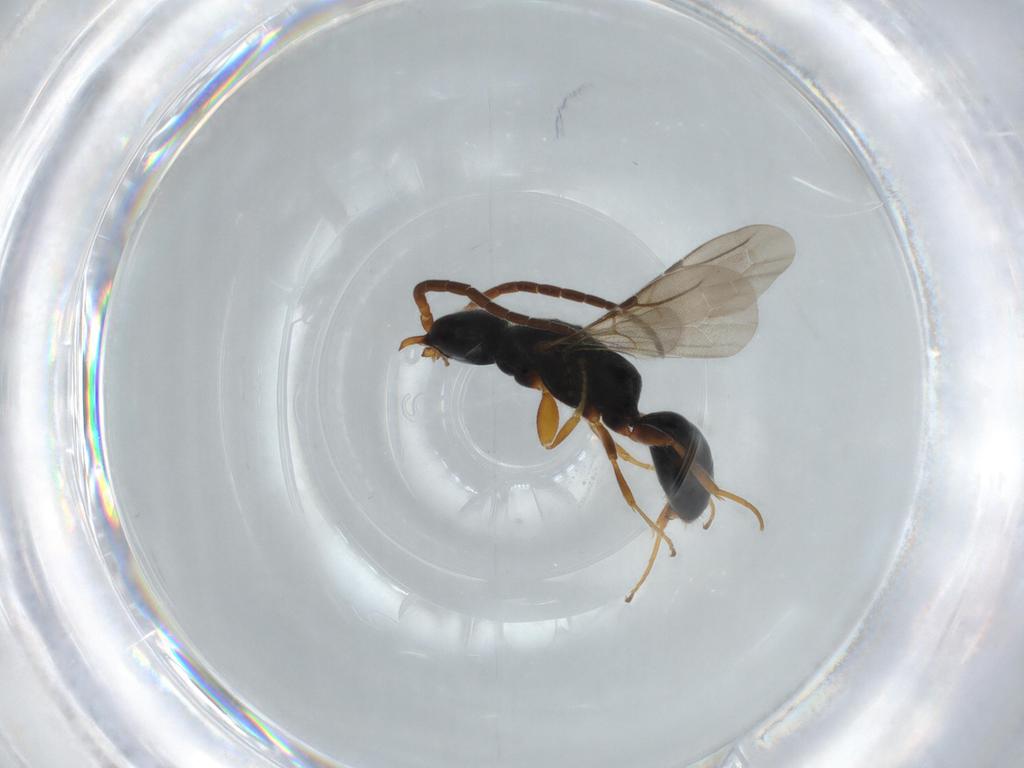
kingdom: Animalia
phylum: Arthropoda
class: Insecta
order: Hymenoptera
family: Bethylidae
